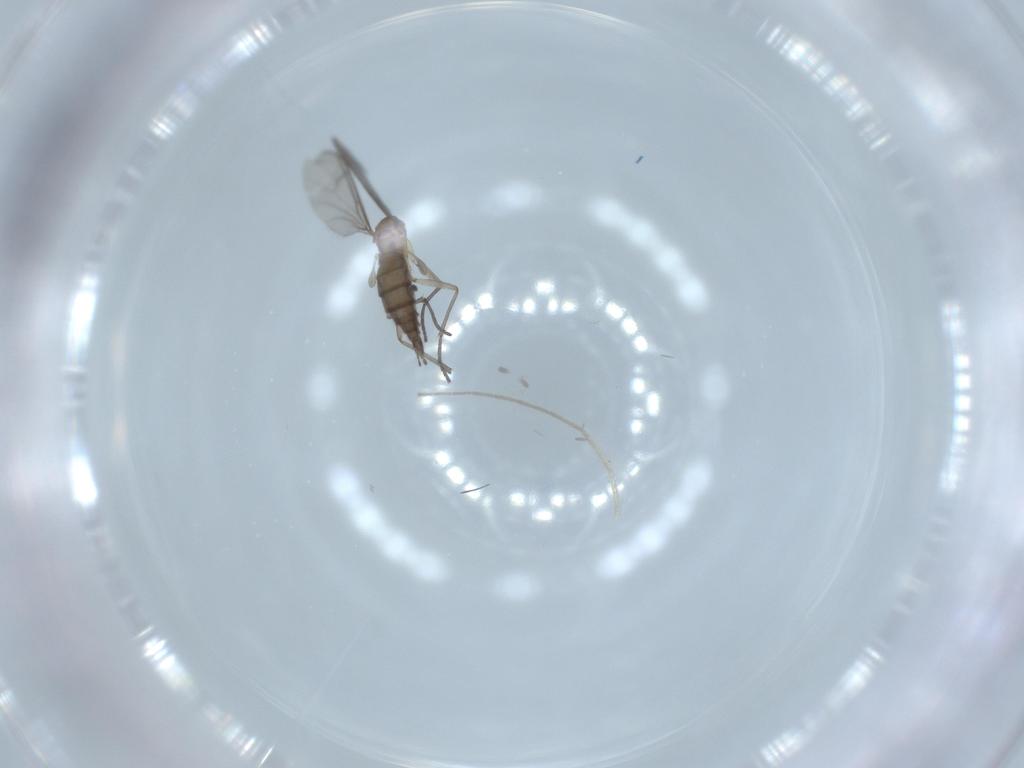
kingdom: Animalia
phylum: Arthropoda
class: Insecta
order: Diptera
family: Sciaridae
